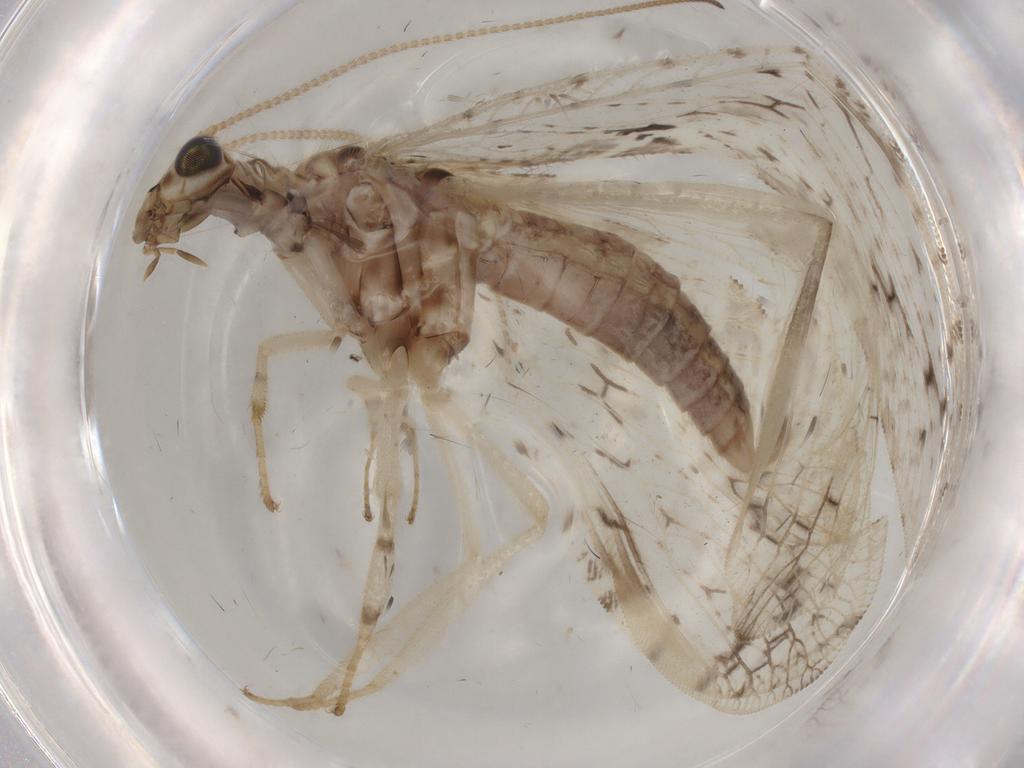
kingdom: Animalia
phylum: Arthropoda
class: Insecta
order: Neuroptera
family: Hemerobiidae
